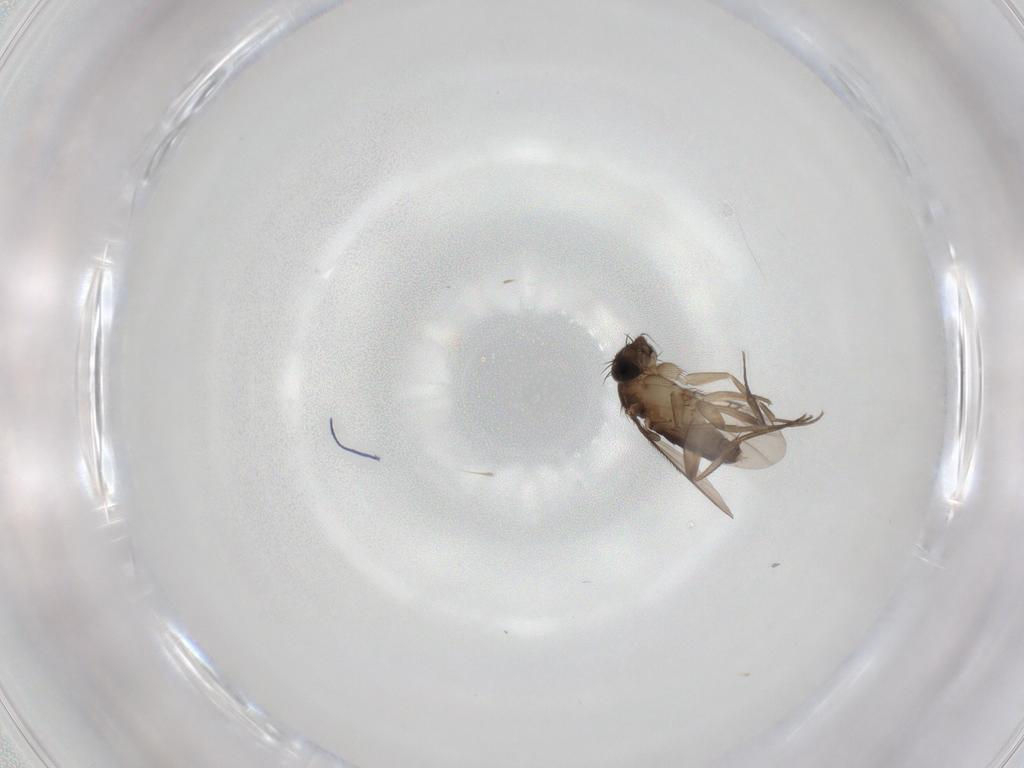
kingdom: Animalia
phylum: Arthropoda
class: Insecta
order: Diptera
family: Phoridae
